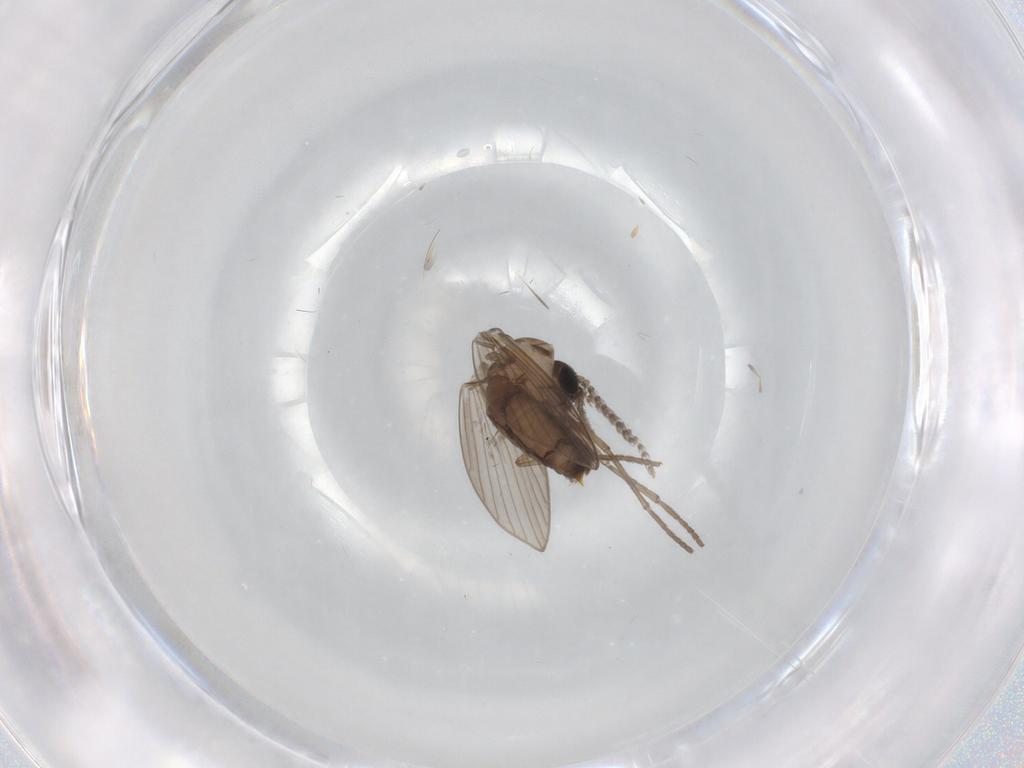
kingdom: Animalia
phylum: Arthropoda
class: Insecta
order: Diptera
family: Psychodidae
